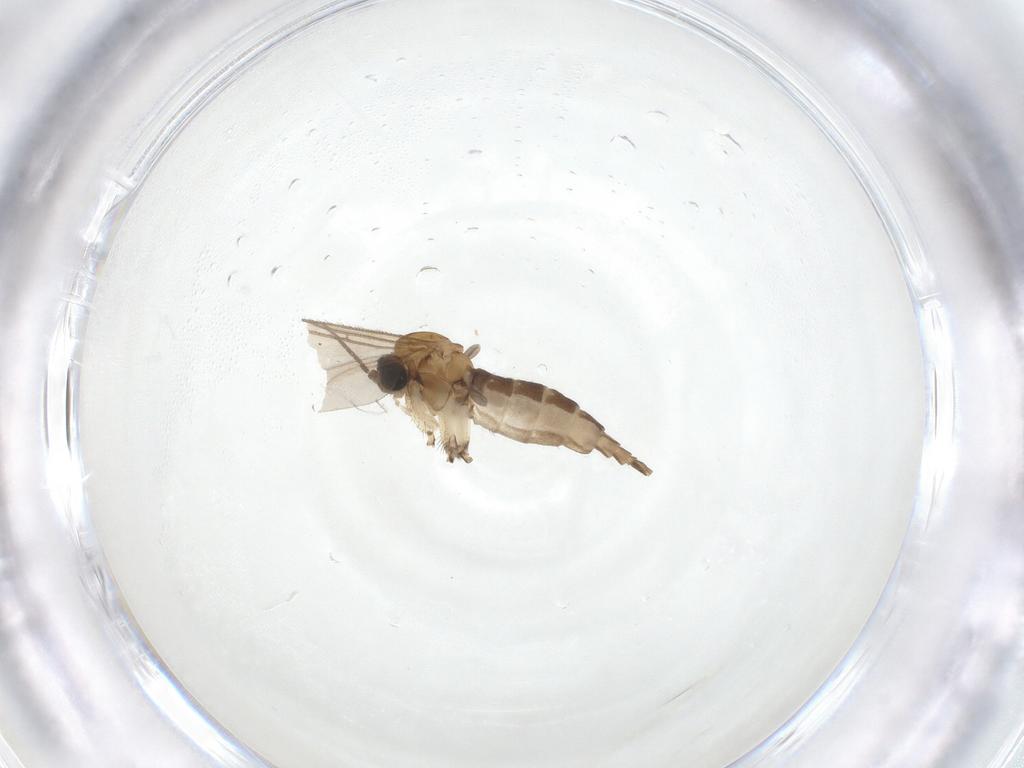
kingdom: Animalia
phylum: Arthropoda
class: Insecta
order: Diptera
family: Sciaridae
